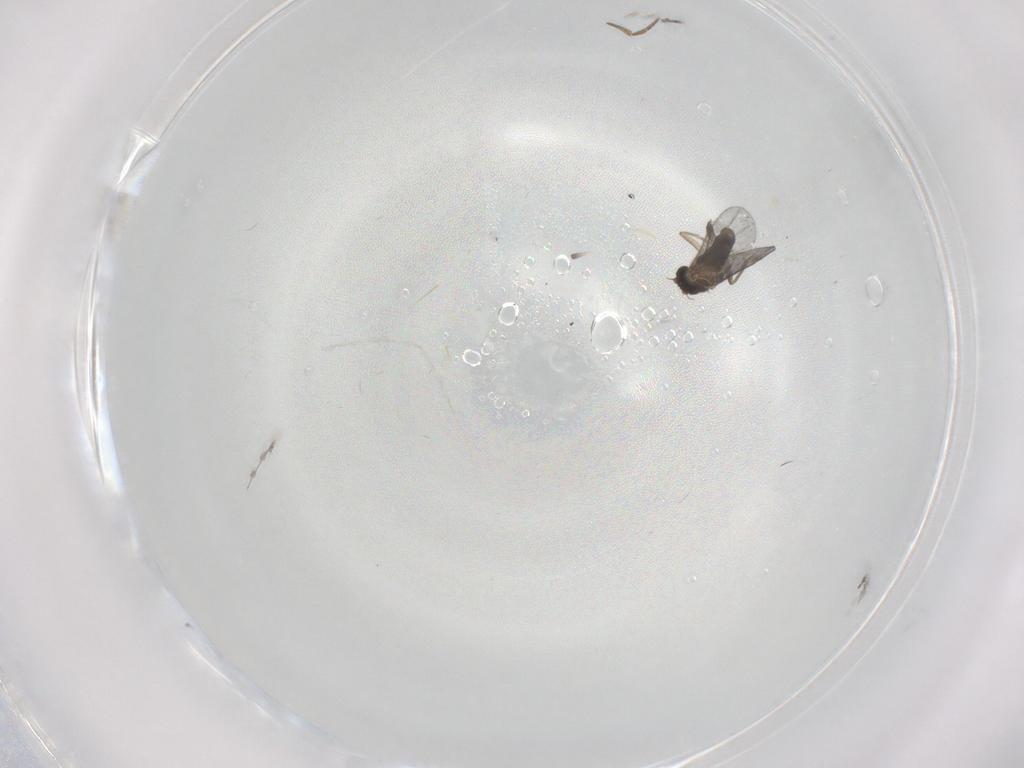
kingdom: Animalia
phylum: Arthropoda
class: Insecta
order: Diptera
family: Cecidomyiidae
